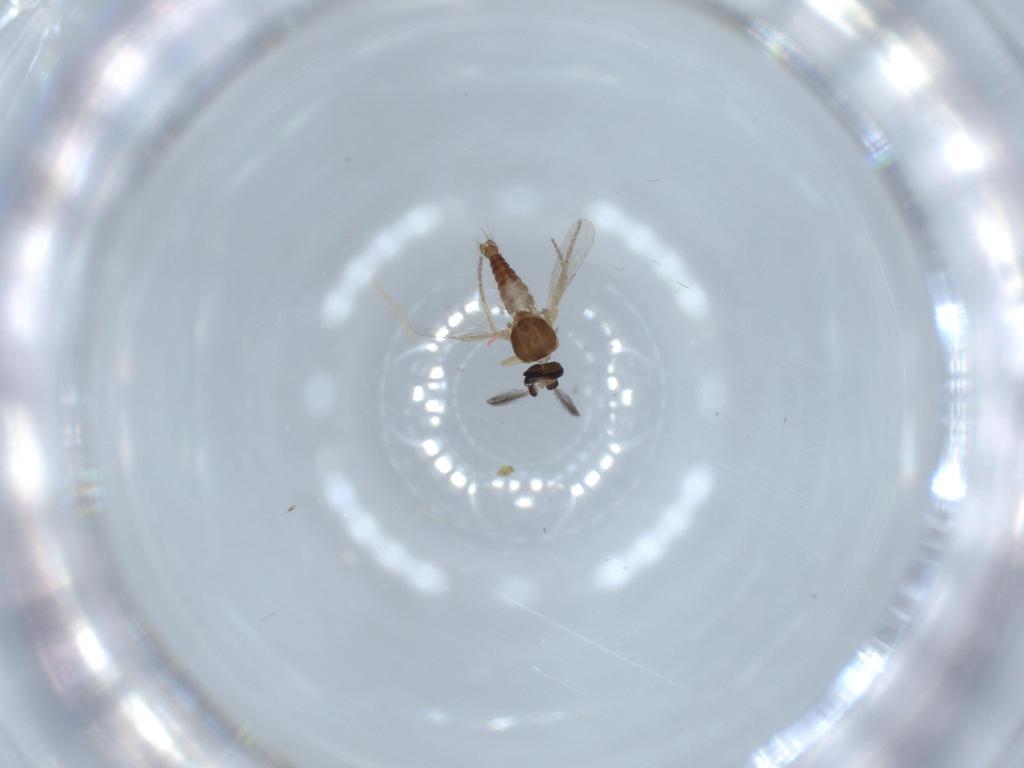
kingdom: Animalia
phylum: Arthropoda
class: Insecta
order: Diptera
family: Ceratopogonidae
